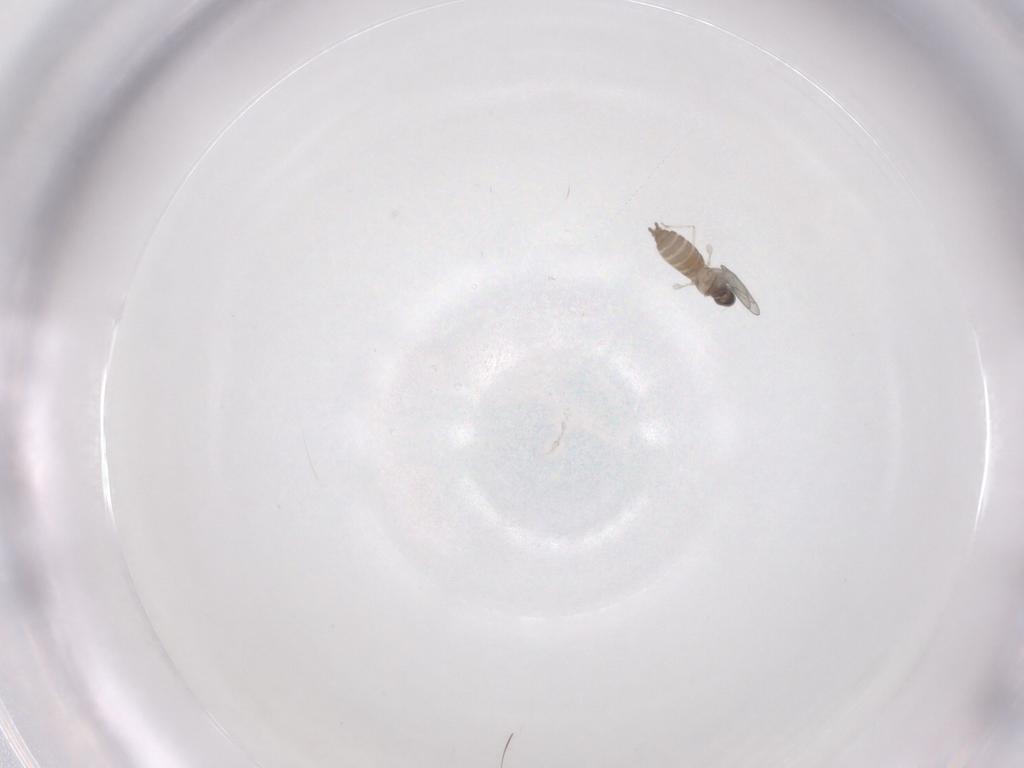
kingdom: Animalia
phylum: Arthropoda
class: Insecta
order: Diptera
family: Cecidomyiidae
